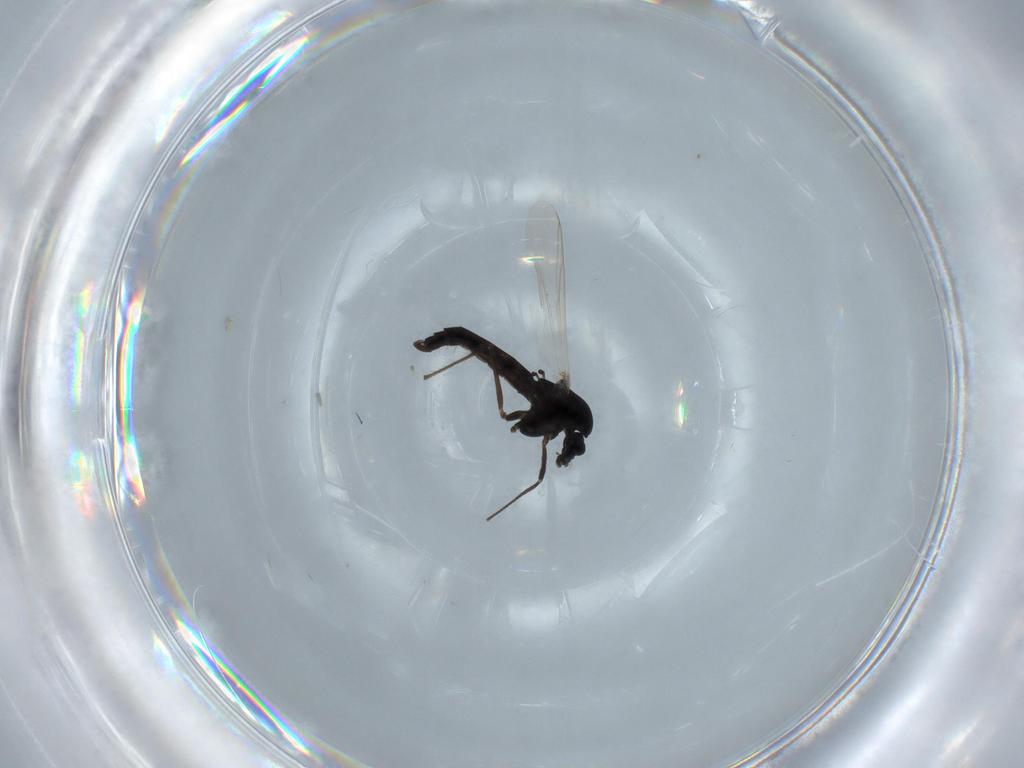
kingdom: Animalia
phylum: Arthropoda
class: Insecta
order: Diptera
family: Chironomidae
